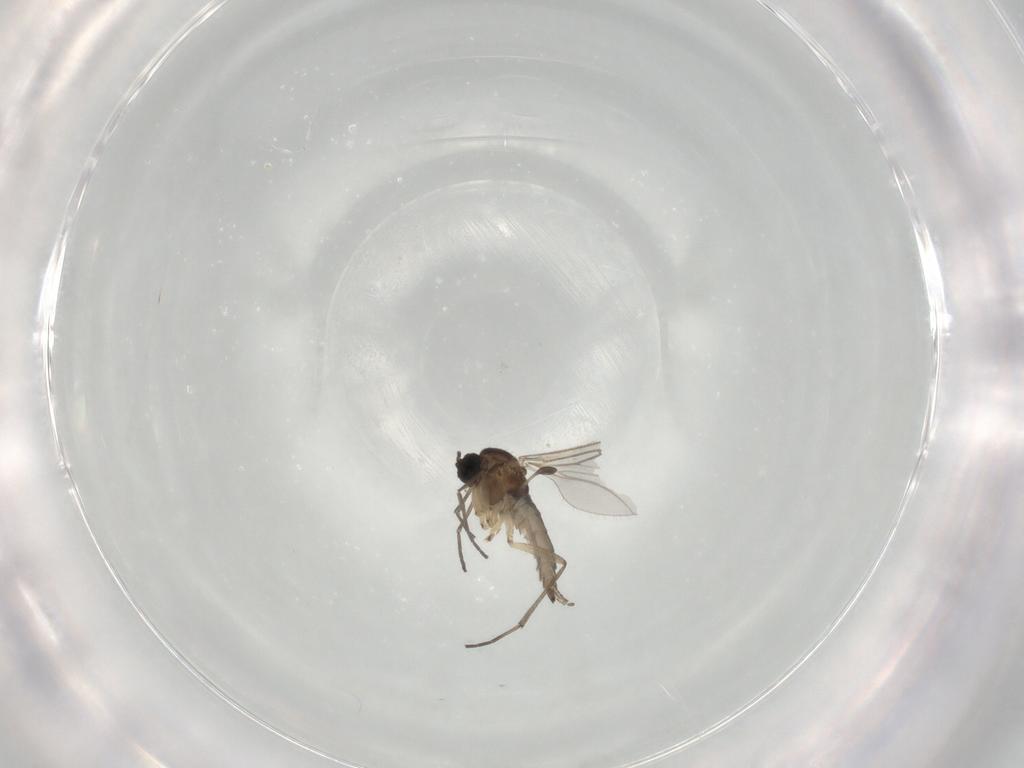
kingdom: Animalia
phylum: Arthropoda
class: Insecta
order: Diptera
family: Sciaridae
